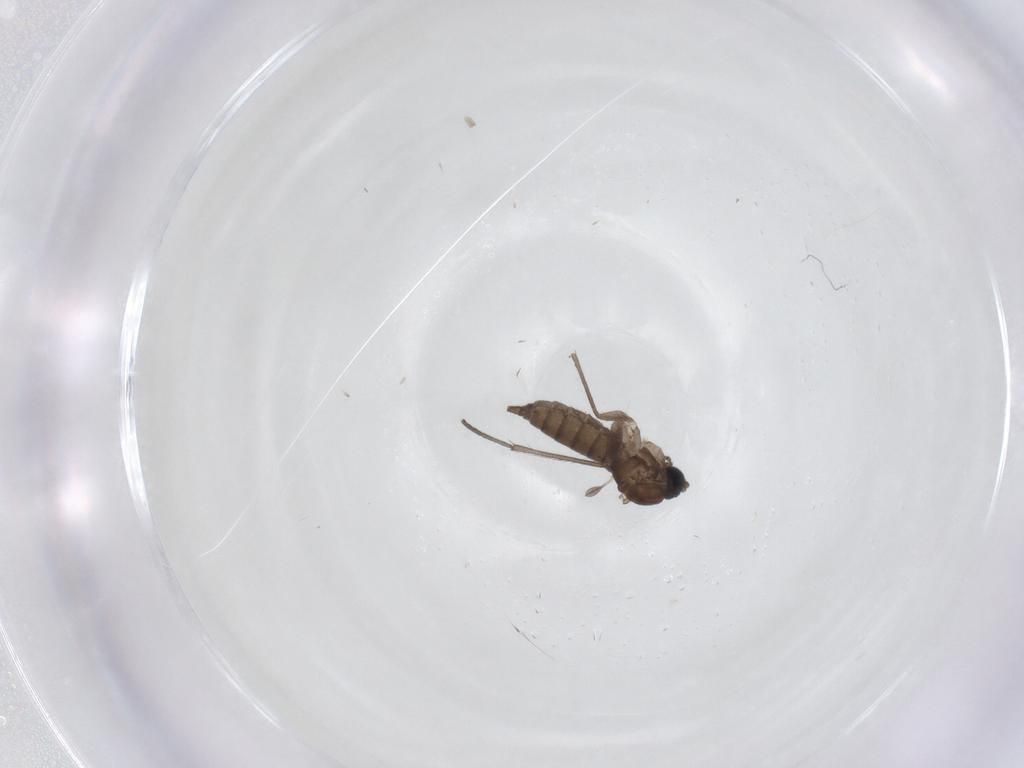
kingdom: Animalia
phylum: Arthropoda
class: Insecta
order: Diptera
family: Sciaridae
